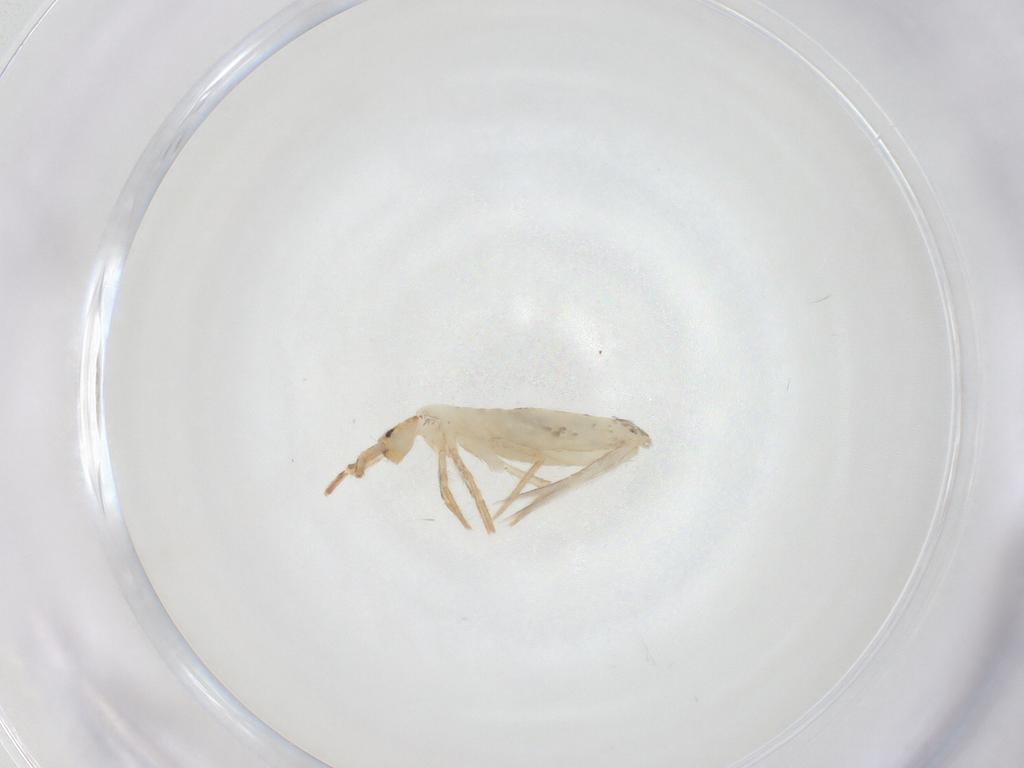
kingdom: Animalia
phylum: Arthropoda
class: Collembola
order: Entomobryomorpha
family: Entomobryidae
